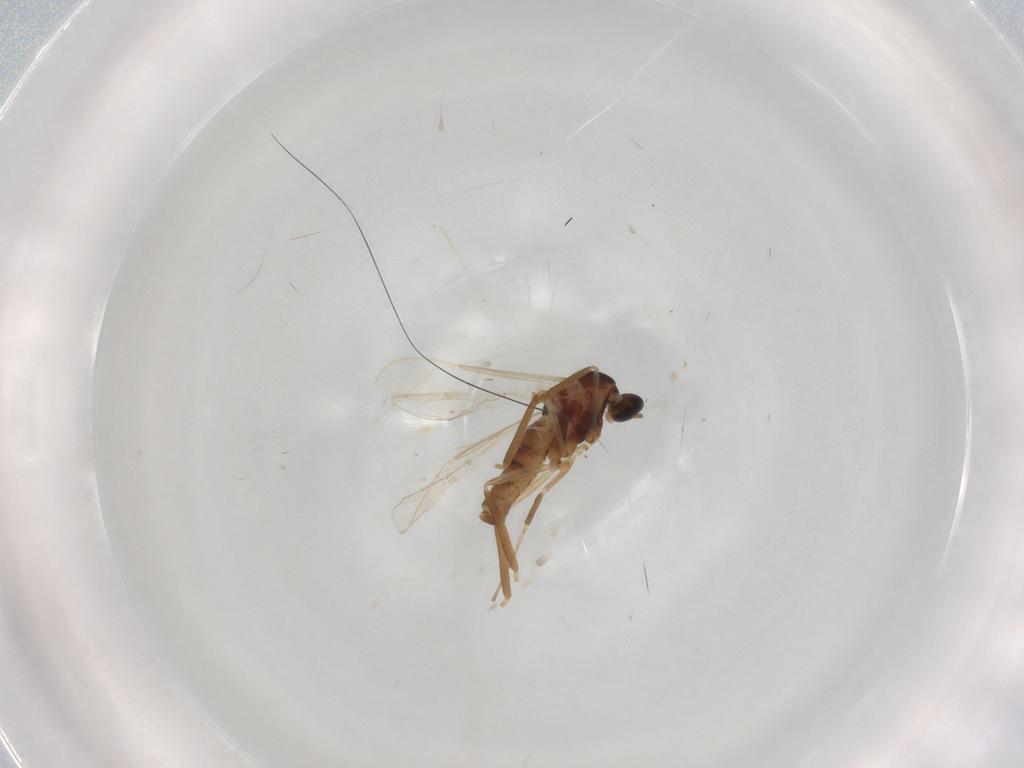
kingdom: Animalia
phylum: Arthropoda
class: Insecta
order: Diptera
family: Cecidomyiidae
